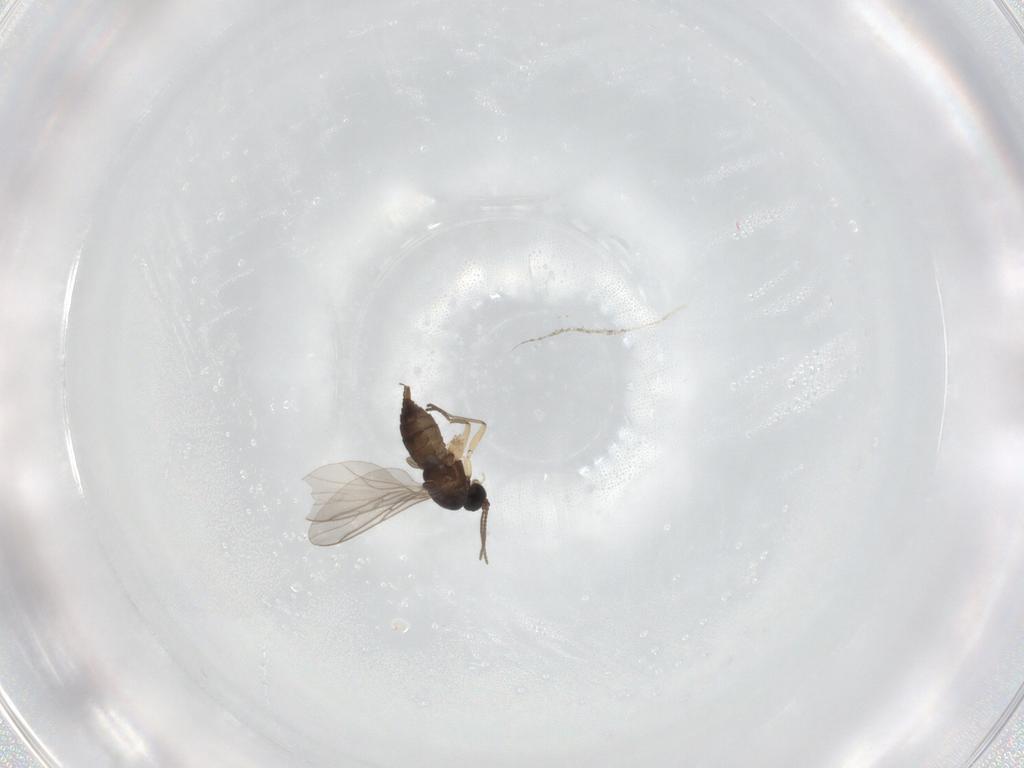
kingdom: Animalia
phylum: Arthropoda
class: Insecta
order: Diptera
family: Sciaridae
